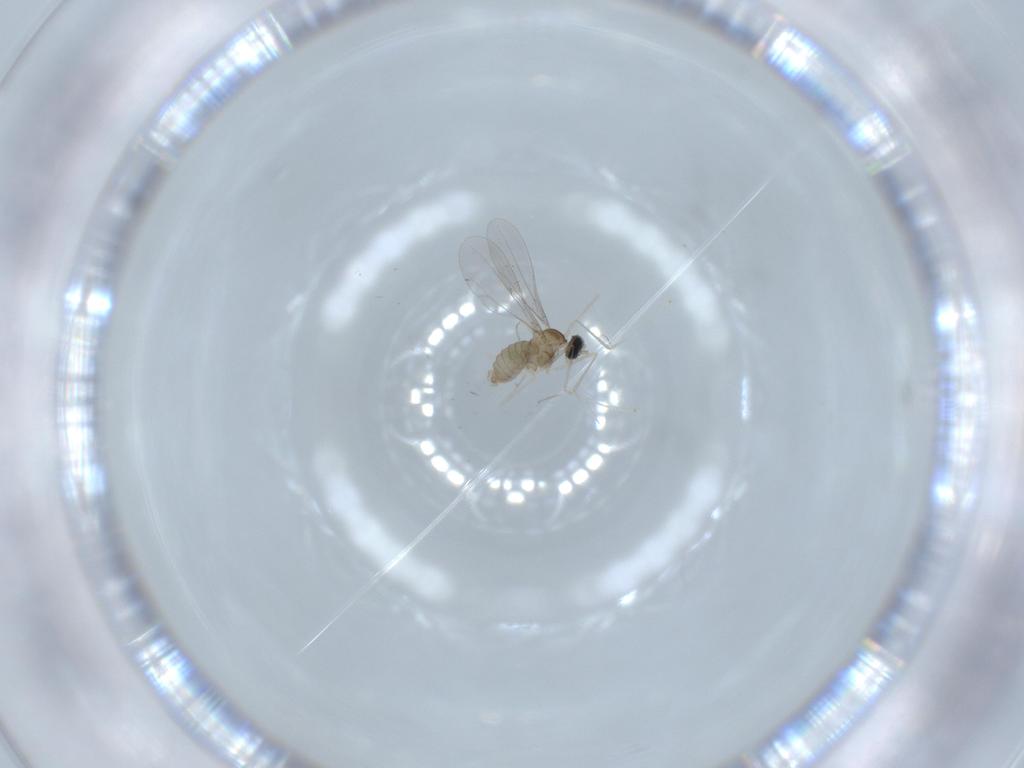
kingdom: Animalia
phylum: Arthropoda
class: Insecta
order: Diptera
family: Cecidomyiidae
